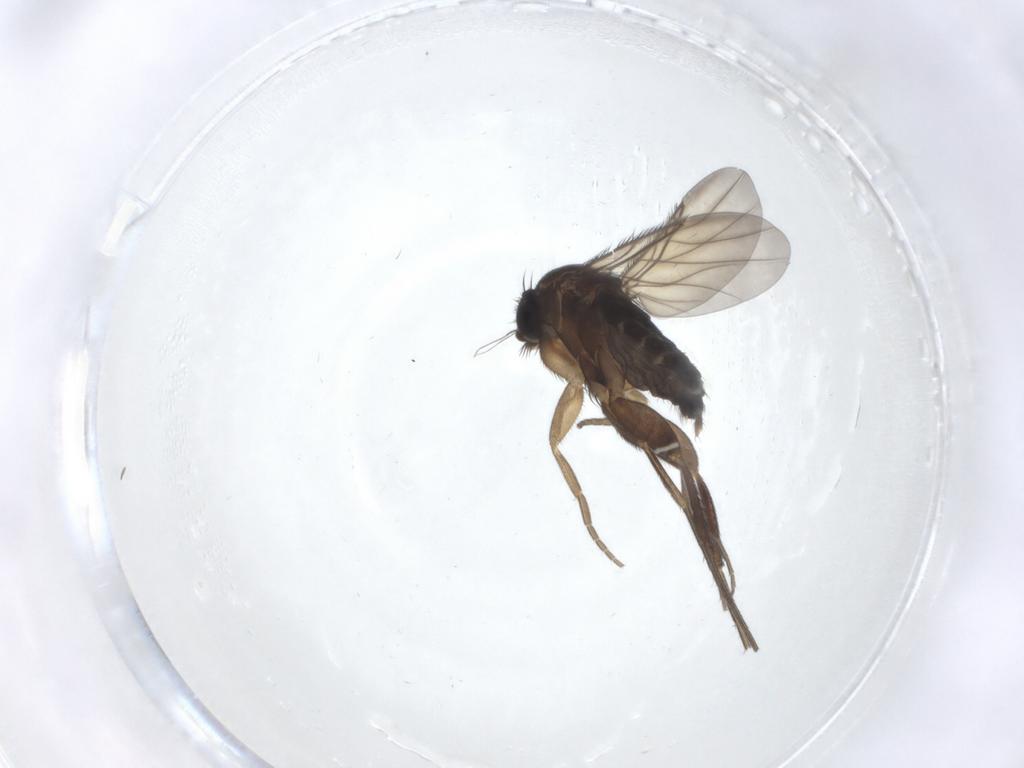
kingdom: Animalia
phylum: Arthropoda
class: Insecta
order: Diptera
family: Phoridae
